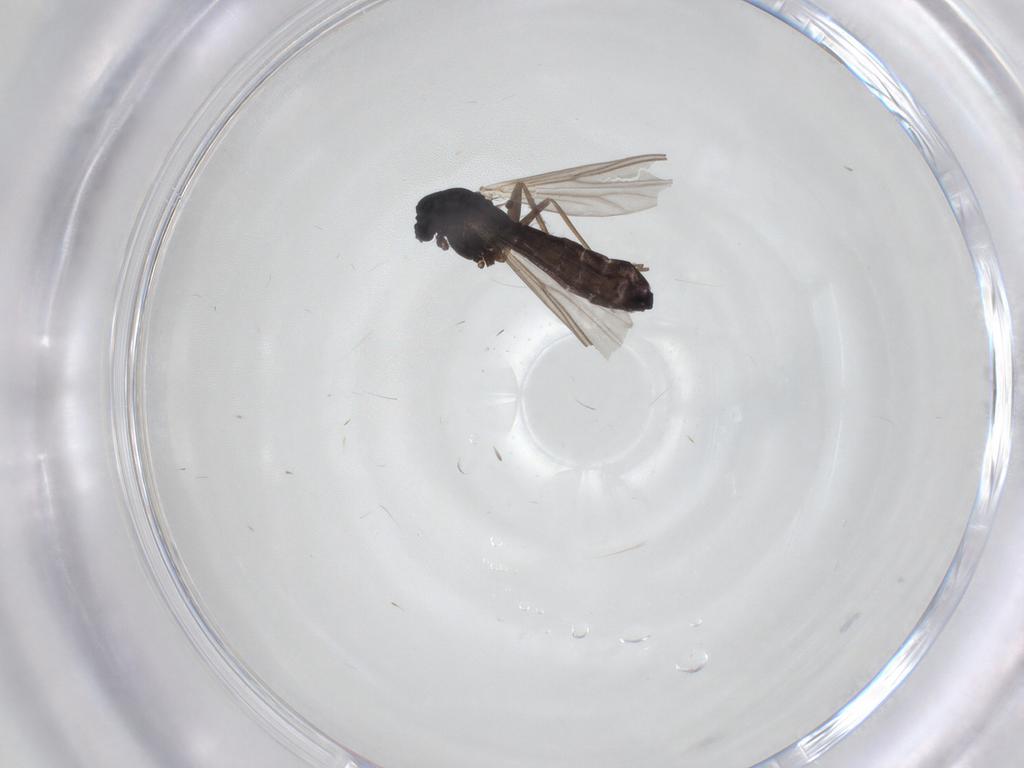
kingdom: Animalia
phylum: Arthropoda
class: Insecta
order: Diptera
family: Chironomidae
